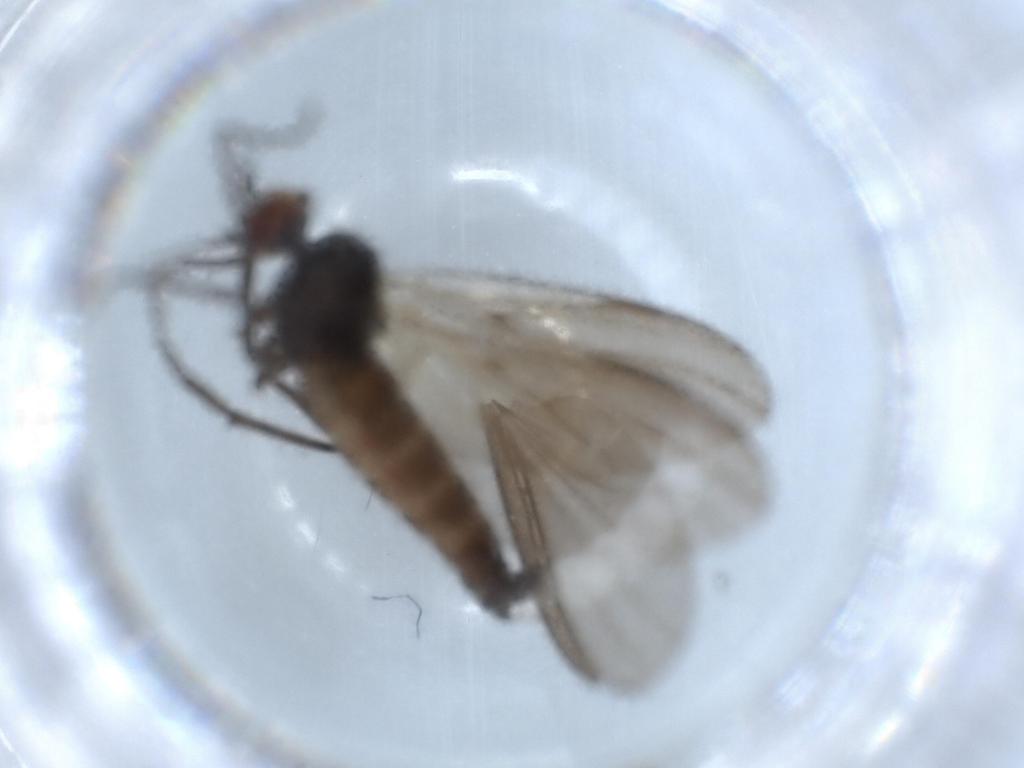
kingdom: Animalia
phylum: Arthropoda
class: Insecta
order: Diptera
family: Empididae
